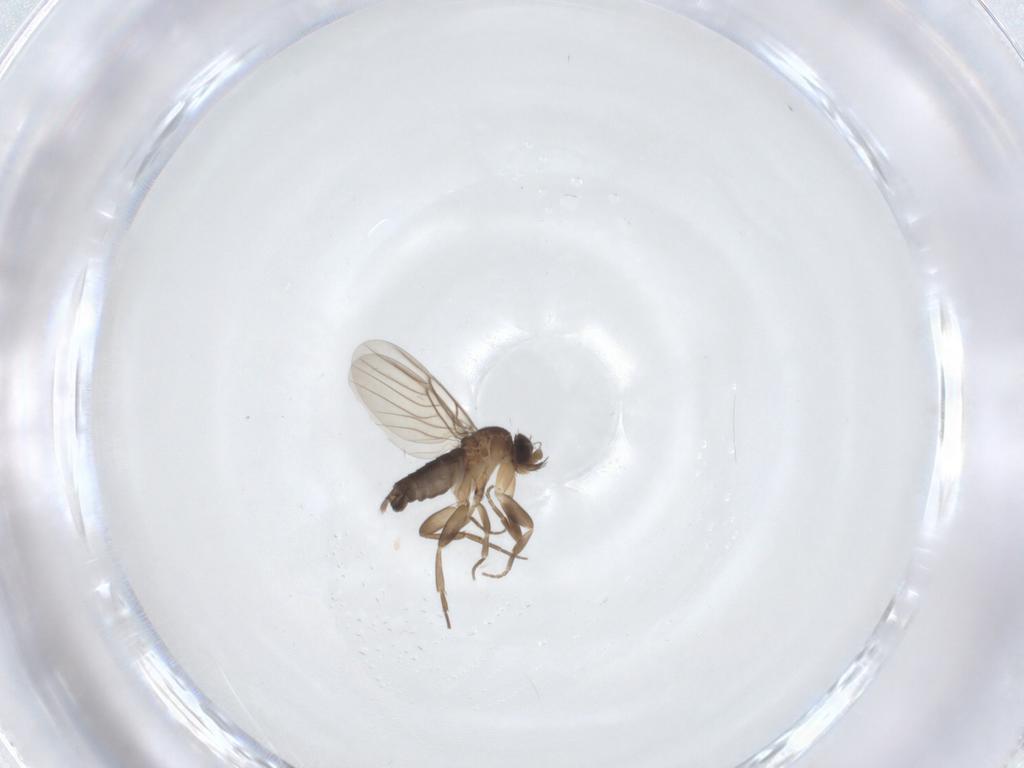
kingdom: Animalia
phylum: Arthropoda
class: Insecta
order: Diptera
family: Phoridae
